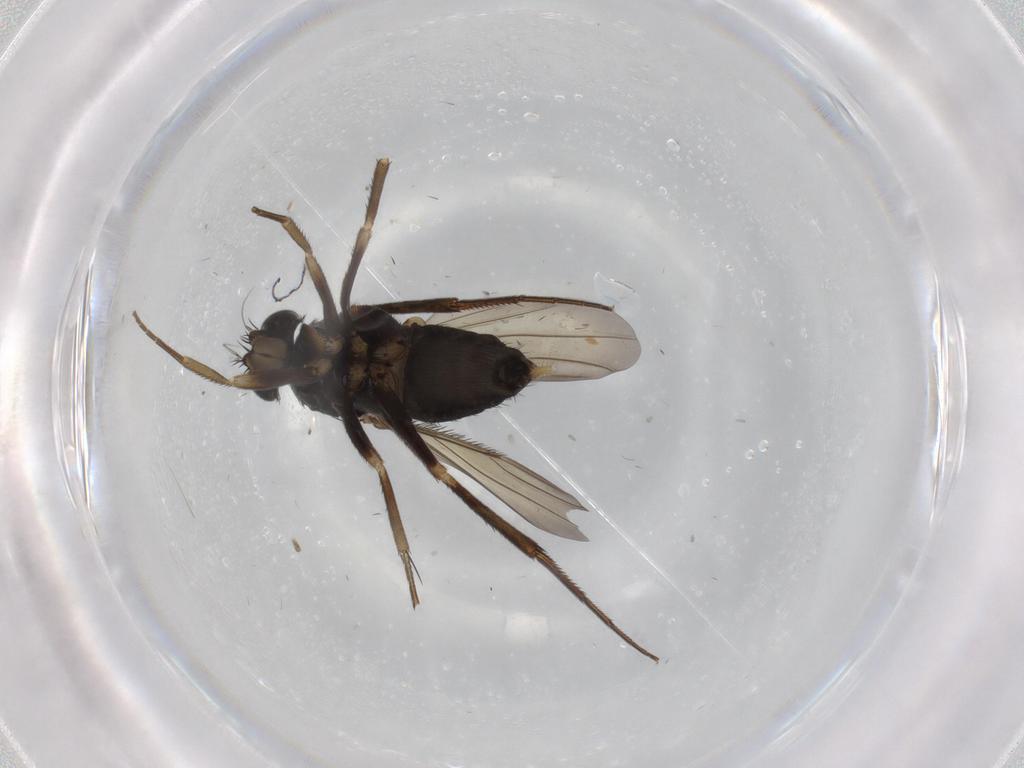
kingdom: Animalia
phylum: Arthropoda
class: Insecta
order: Diptera
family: Phoridae
